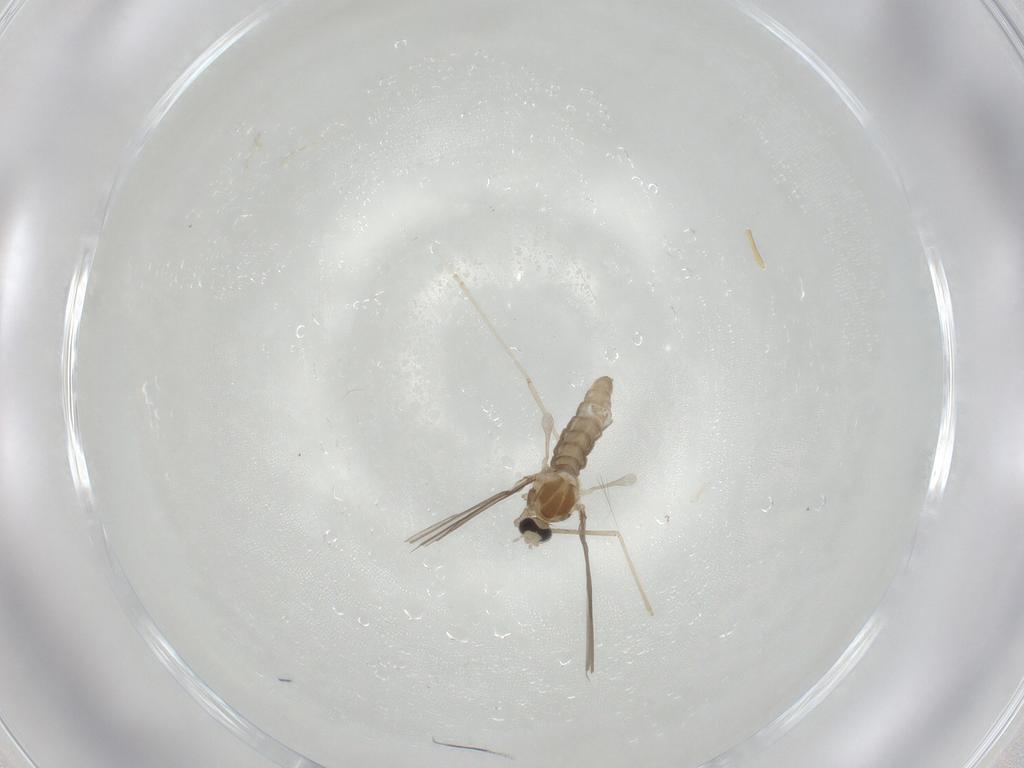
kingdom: Animalia
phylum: Arthropoda
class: Insecta
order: Diptera
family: Cecidomyiidae
